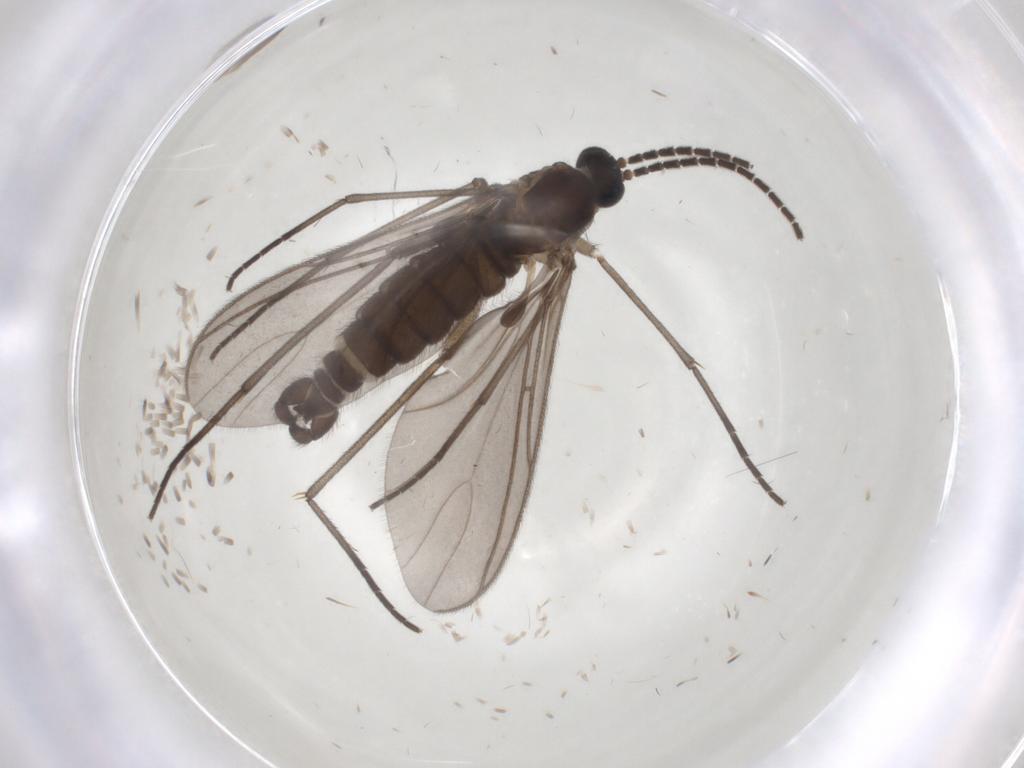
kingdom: Animalia
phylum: Arthropoda
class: Insecta
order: Diptera
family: Sciaridae
